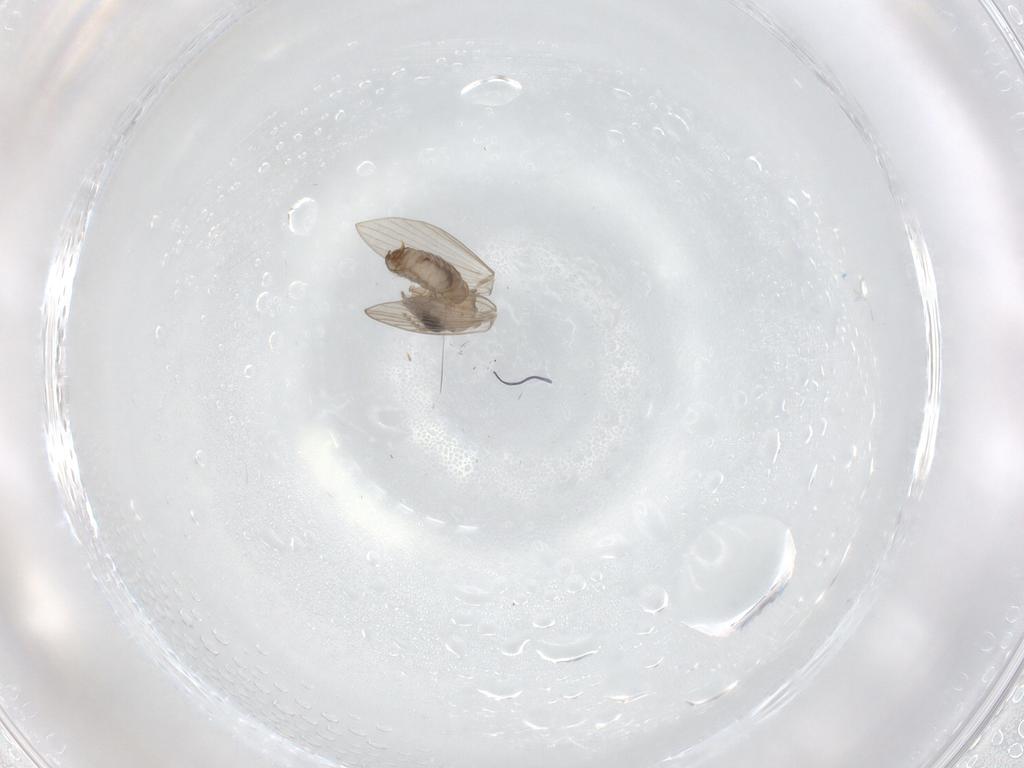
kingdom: Animalia
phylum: Arthropoda
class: Insecta
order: Diptera
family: Psychodidae
